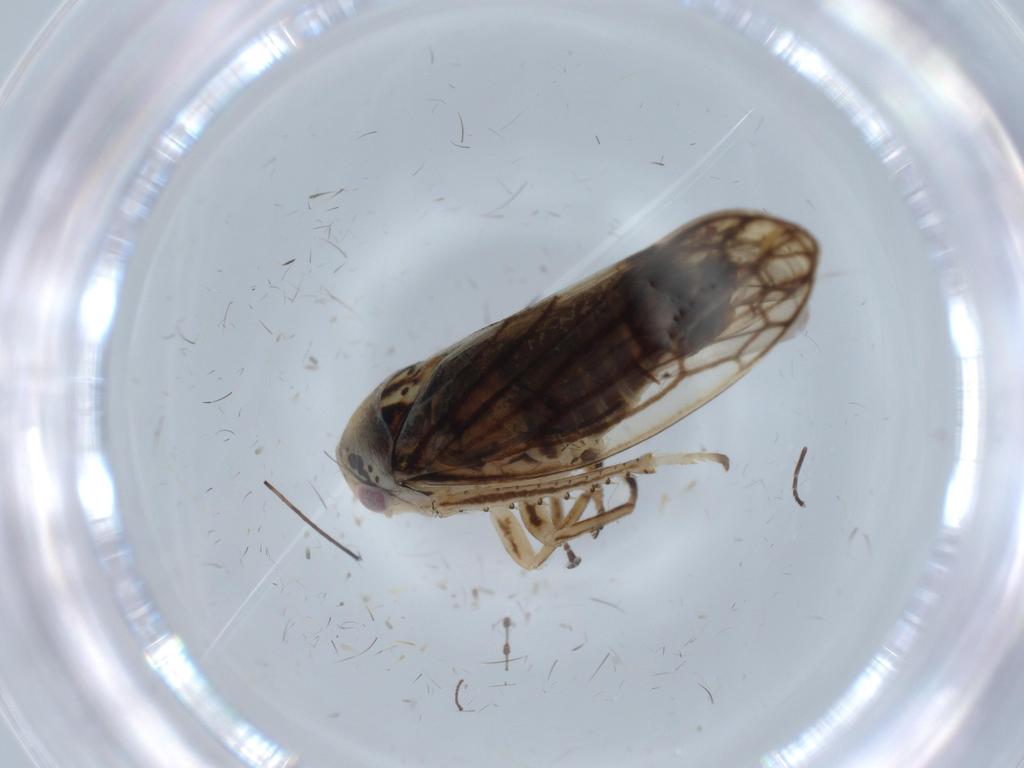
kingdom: Animalia
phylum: Arthropoda
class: Insecta
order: Hemiptera
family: Cicadellidae
